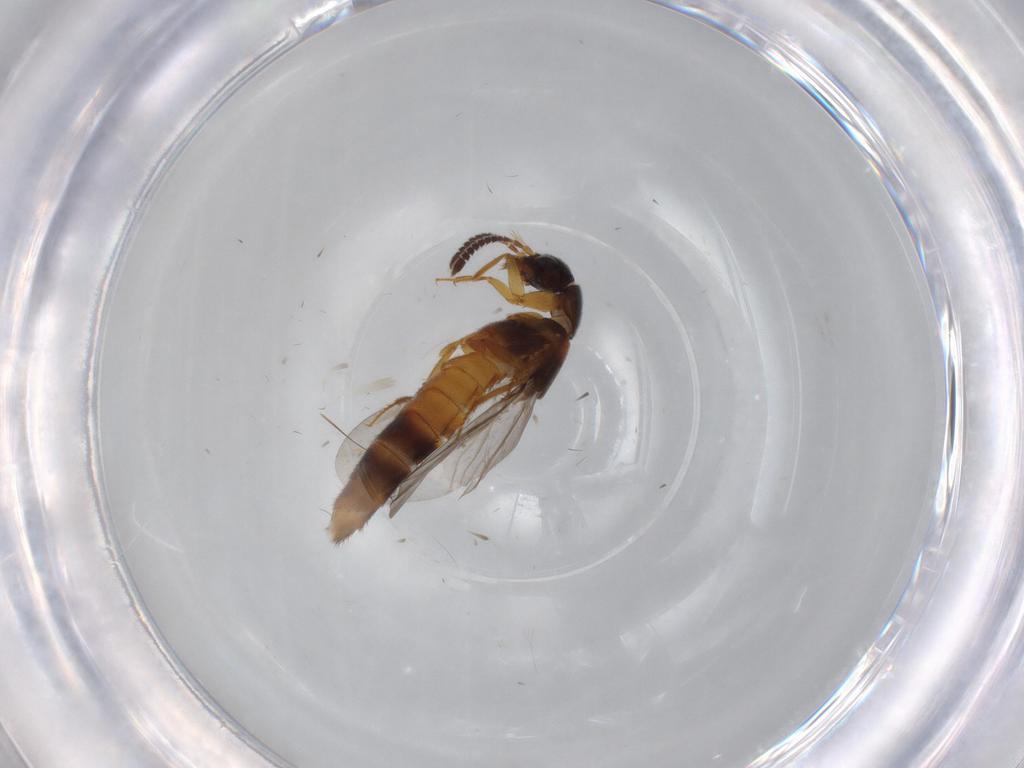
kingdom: Animalia
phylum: Arthropoda
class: Insecta
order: Coleoptera
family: Staphylinidae
